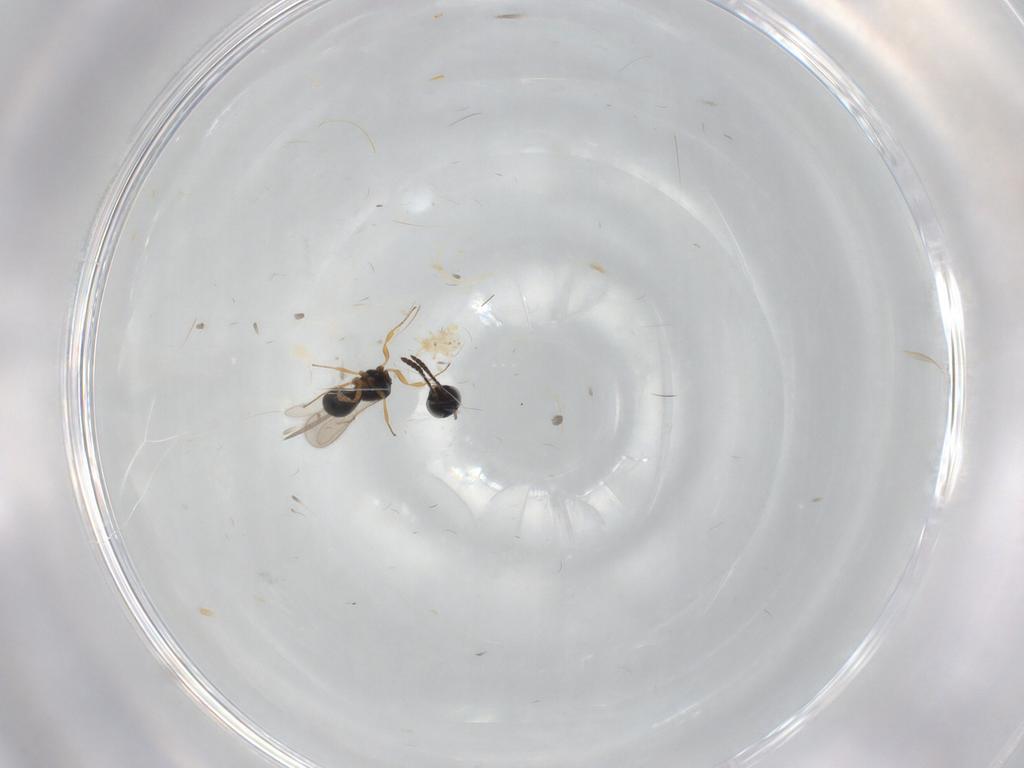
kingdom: Animalia
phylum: Arthropoda
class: Insecta
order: Hymenoptera
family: Scelionidae
